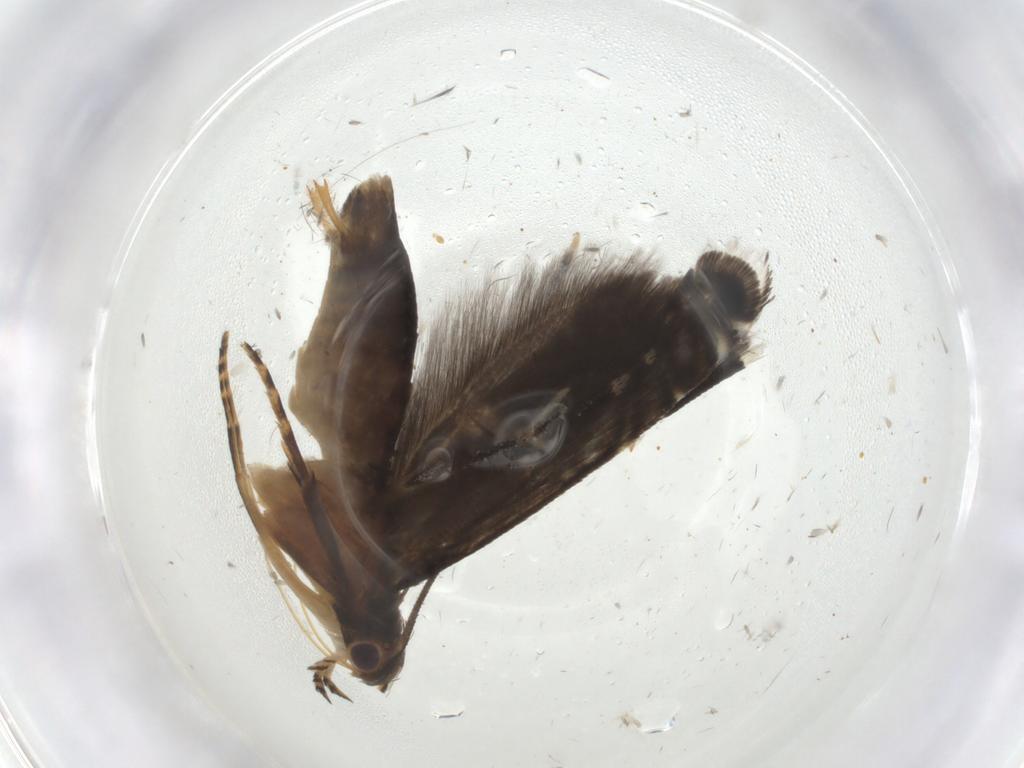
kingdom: Animalia
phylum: Arthropoda
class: Insecta
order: Lepidoptera
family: Glyphipterigidae
